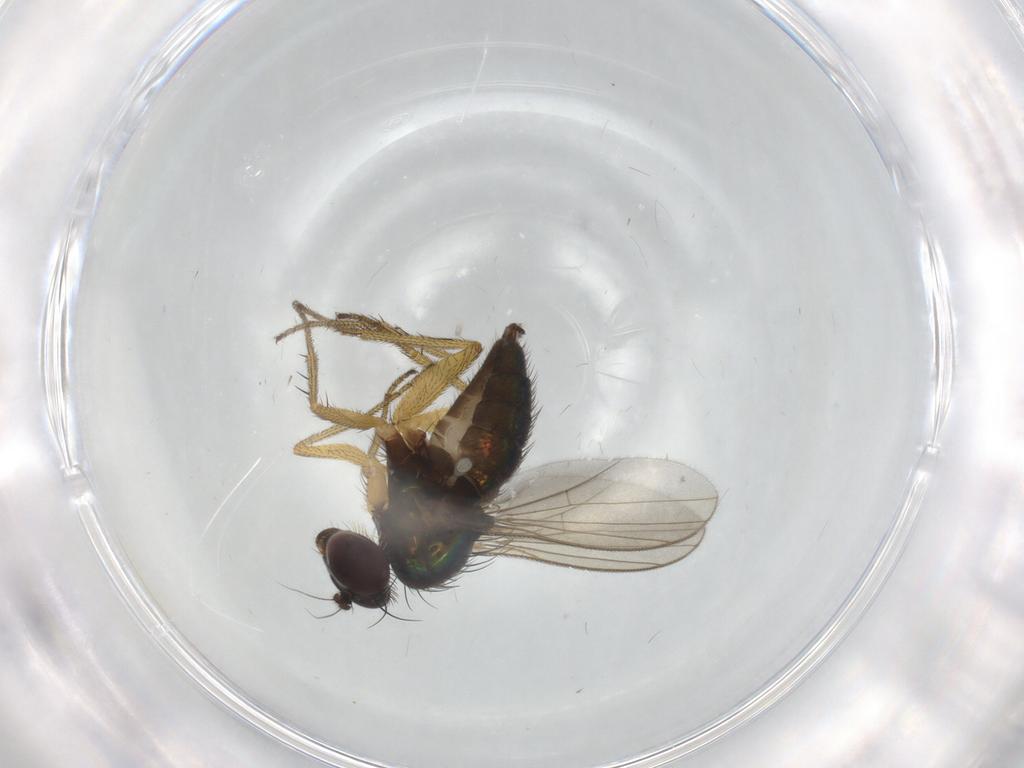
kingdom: Animalia
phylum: Arthropoda
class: Insecta
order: Diptera
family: Dolichopodidae
